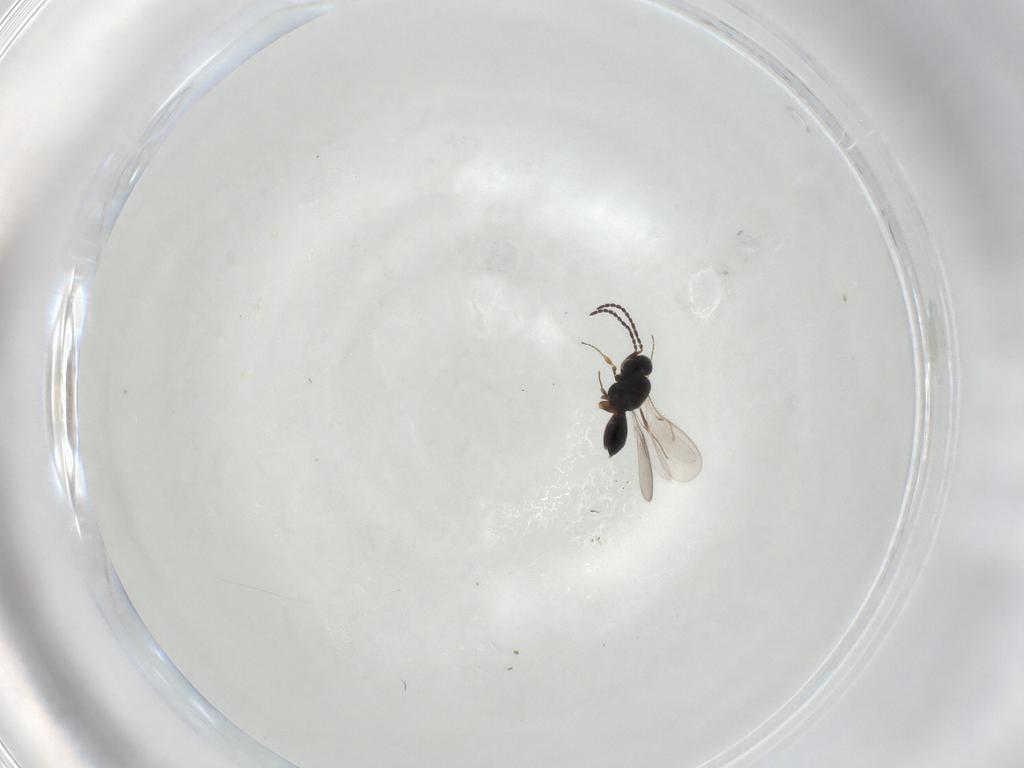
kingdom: Animalia
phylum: Arthropoda
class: Insecta
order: Hymenoptera
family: Scelionidae
